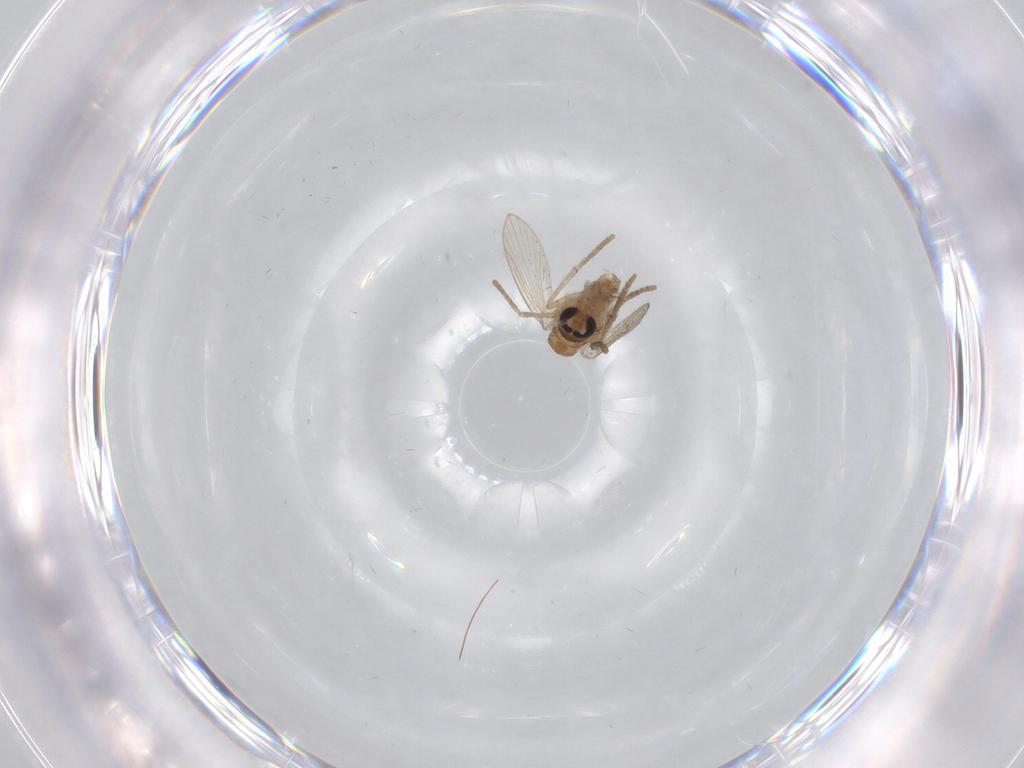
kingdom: Animalia
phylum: Arthropoda
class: Insecta
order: Diptera
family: Psychodidae
